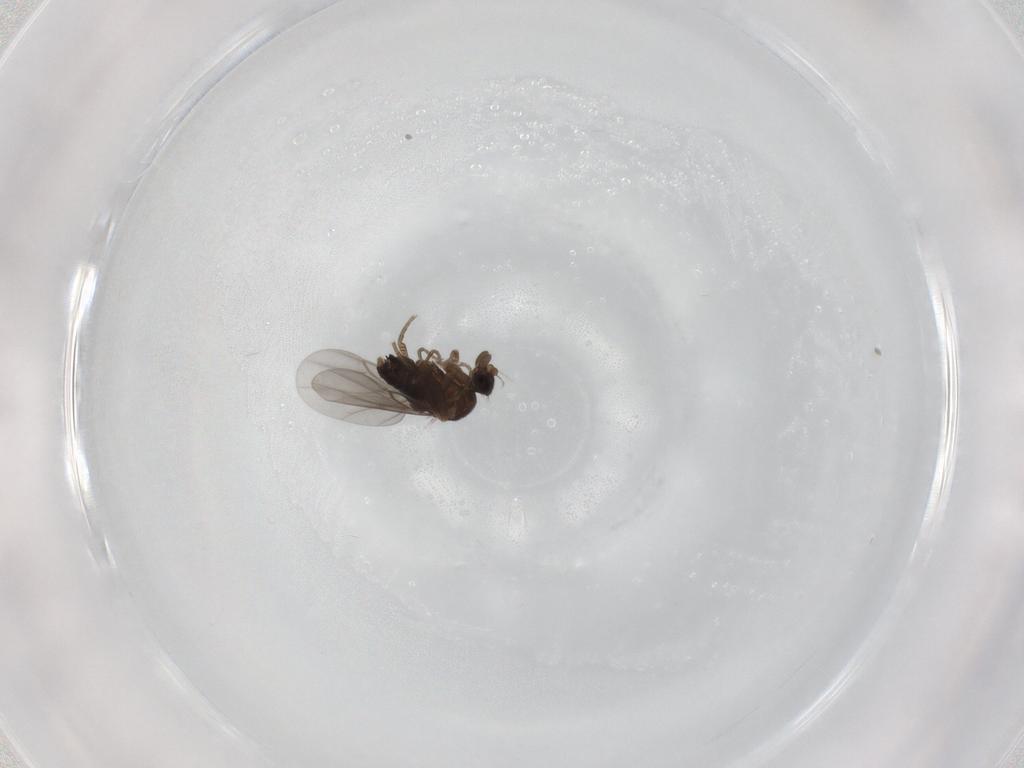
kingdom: Animalia
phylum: Arthropoda
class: Insecta
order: Diptera
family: Phoridae
